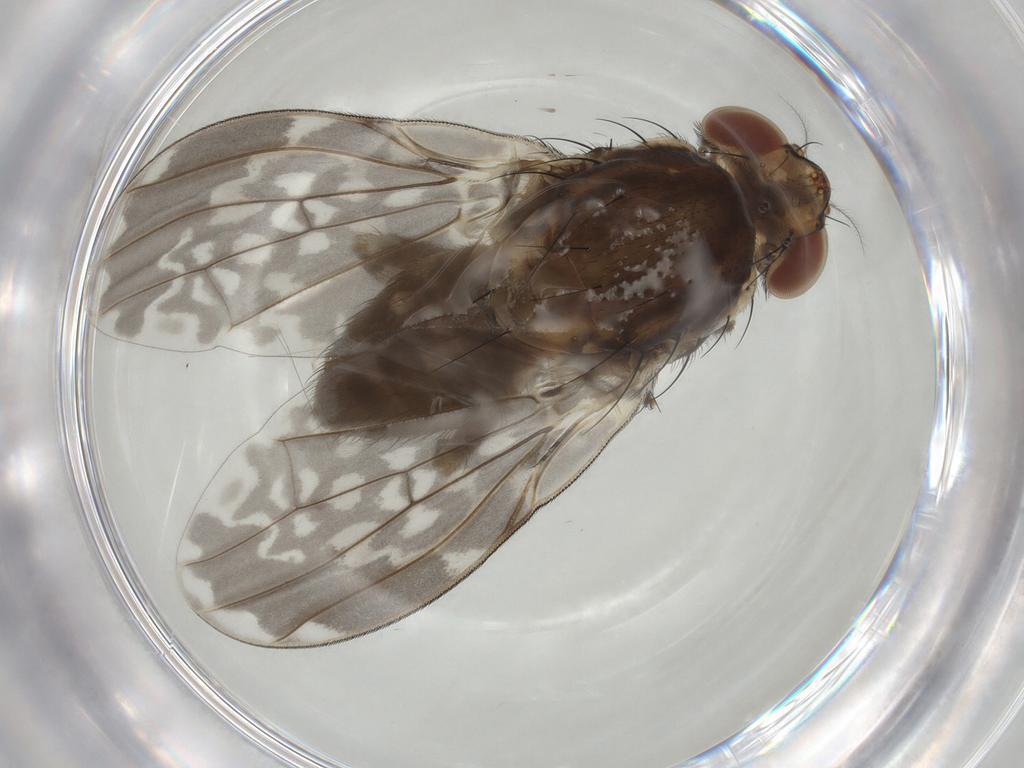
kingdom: Animalia
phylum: Arthropoda
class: Insecta
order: Diptera
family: Lauxaniidae
